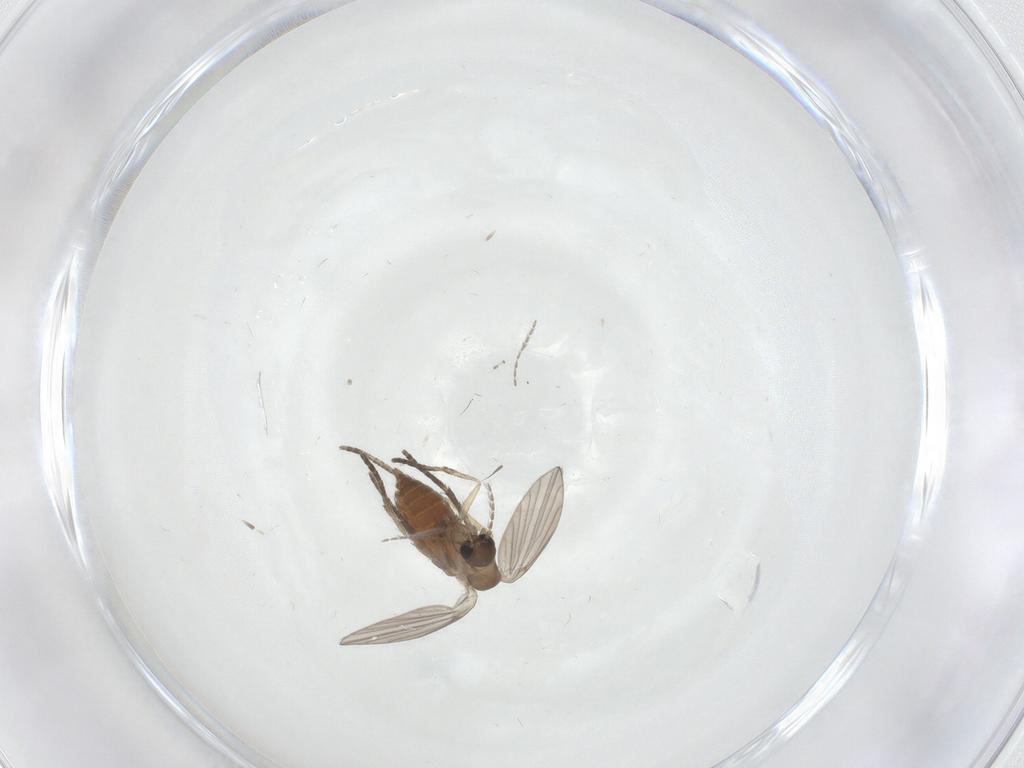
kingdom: Animalia
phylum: Arthropoda
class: Insecta
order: Diptera
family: Cecidomyiidae
